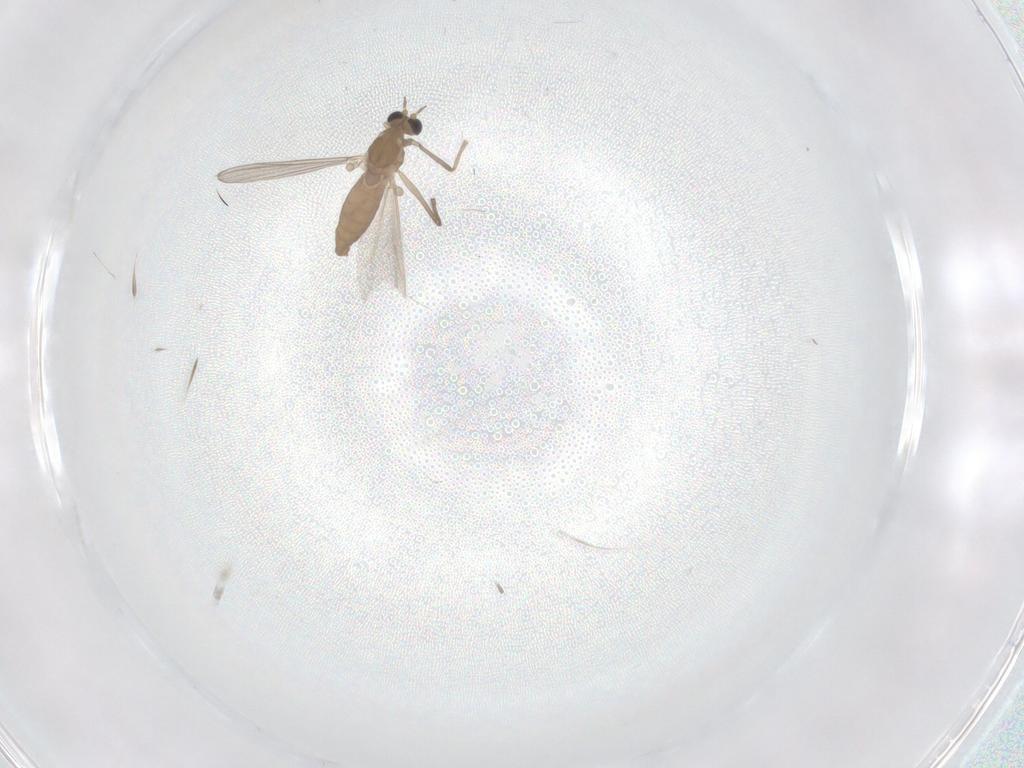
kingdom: Animalia
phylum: Arthropoda
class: Insecta
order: Diptera
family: Chironomidae
